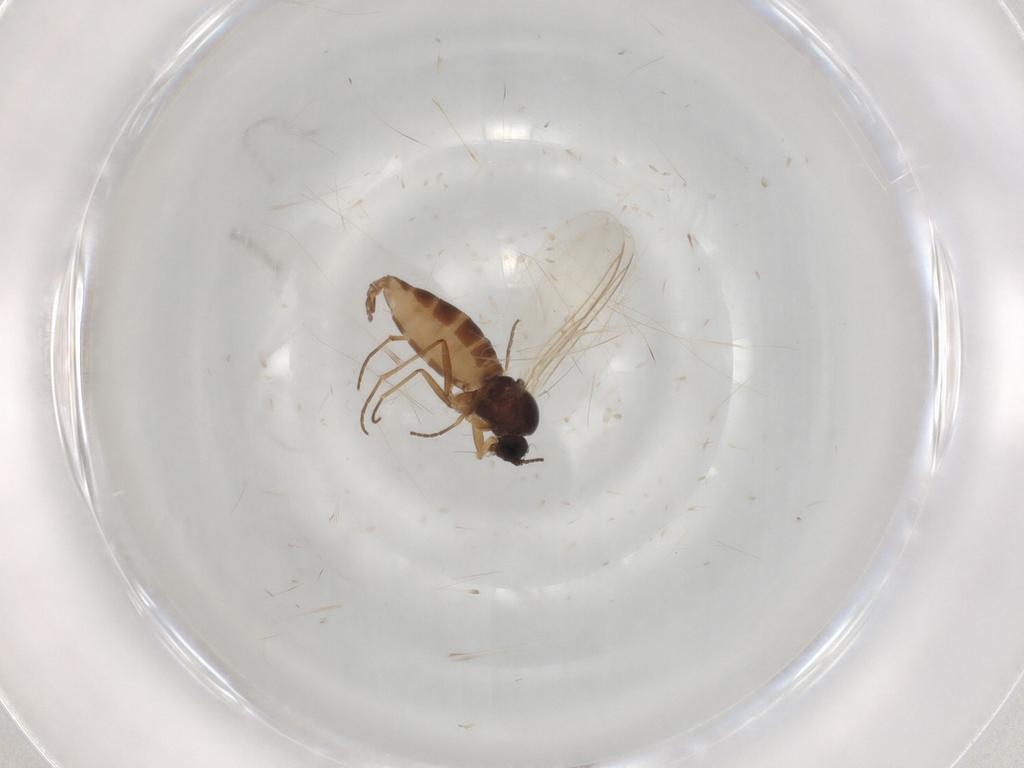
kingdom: Animalia
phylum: Arthropoda
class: Insecta
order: Diptera
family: Sciaridae
